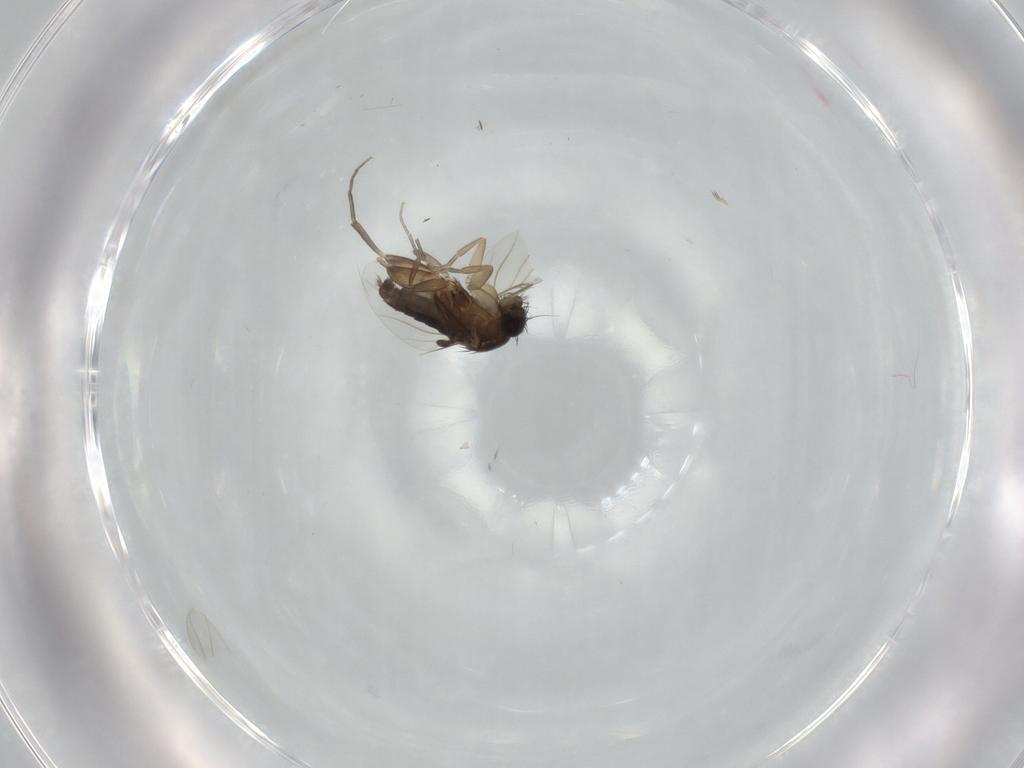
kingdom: Animalia
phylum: Arthropoda
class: Insecta
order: Diptera
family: Phoridae
